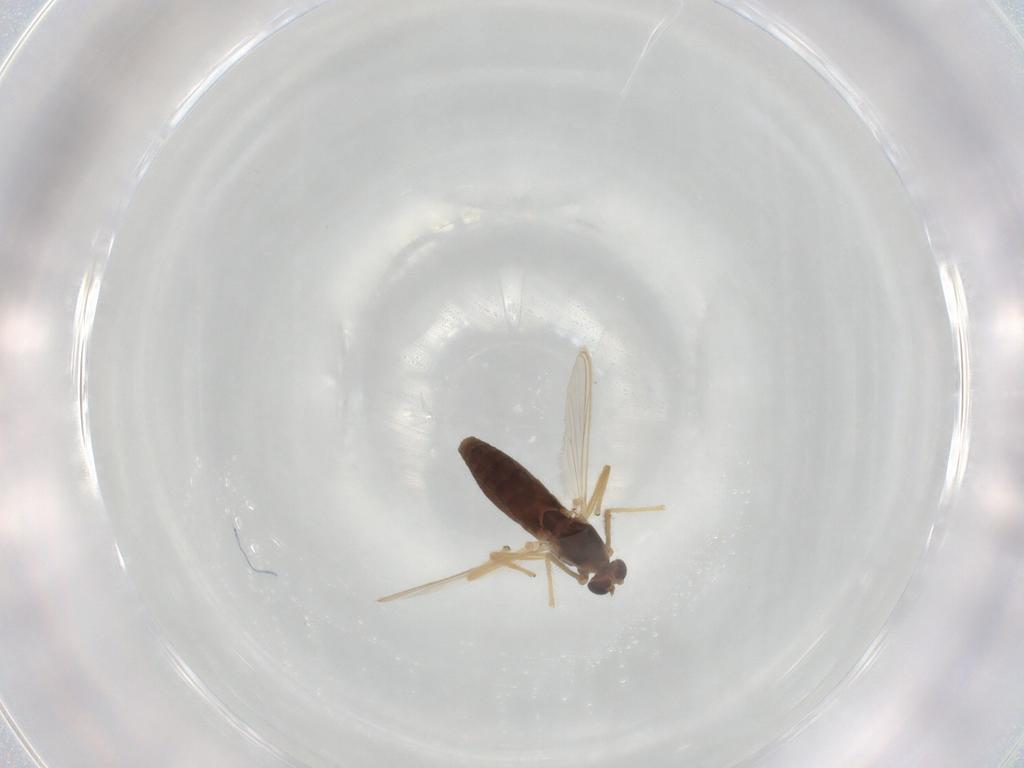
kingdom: Animalia
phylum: Arthropoda
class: Insecta
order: Diptera
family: Chironomidae
